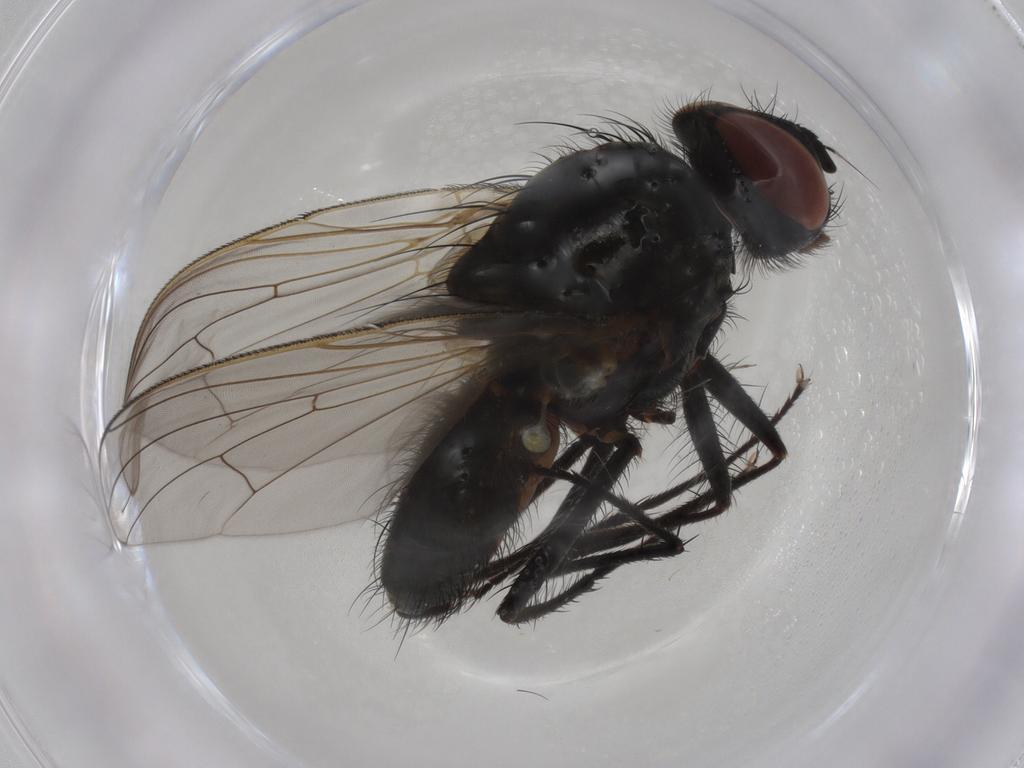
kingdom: Animalia
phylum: Arthropoda
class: Insecta
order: Diptera
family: Anthomyiidae
